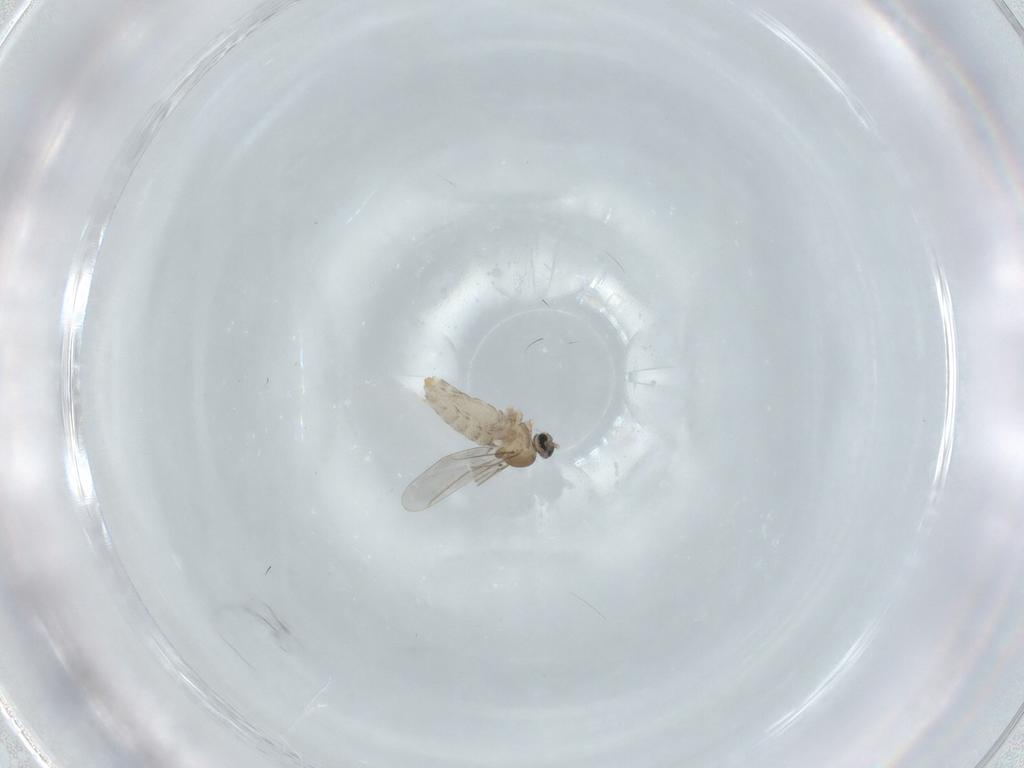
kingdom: Animalia
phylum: Arthropoda
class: Insecta
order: Diptera
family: Cecidomyiidae
